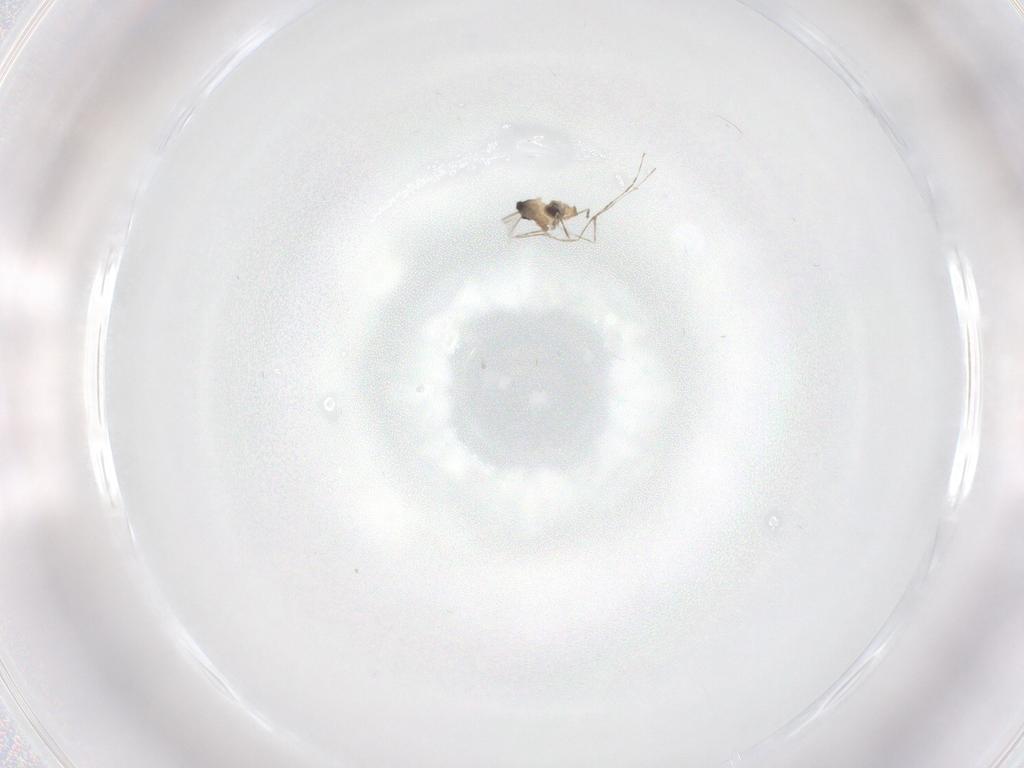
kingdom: Animalia
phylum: Arthropoda
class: Insecta
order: Diptera
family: Cecidomyiidae
